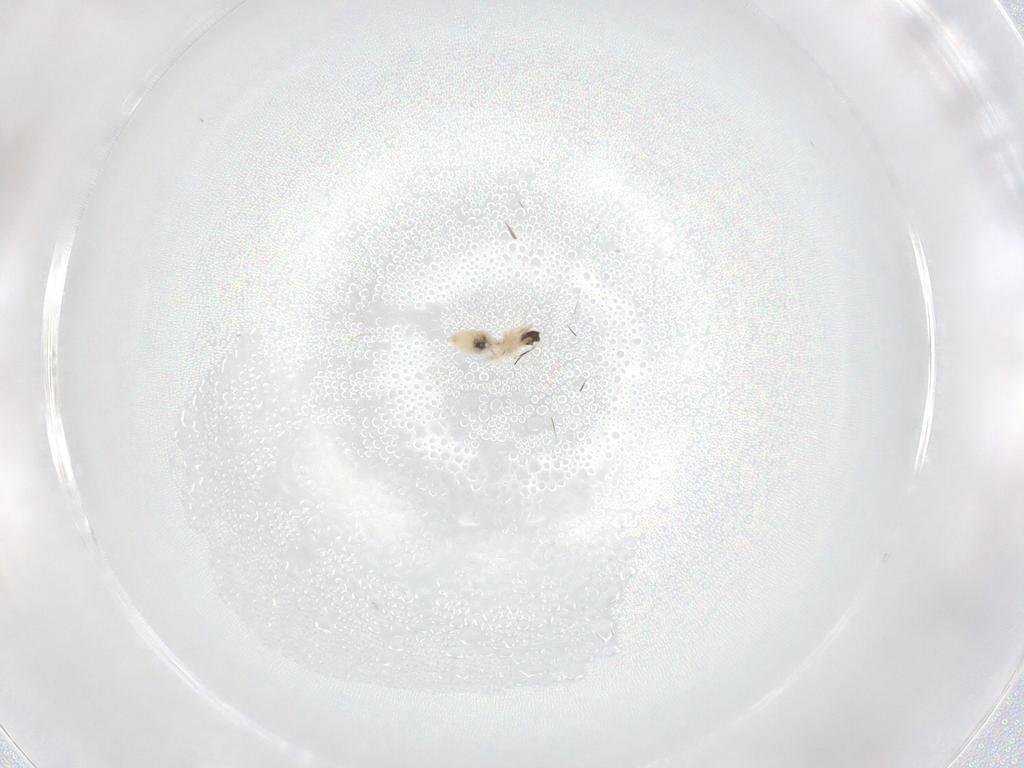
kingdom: Animalia
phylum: Arthropoda
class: Insecta
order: Diptera
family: Cecidomyiidae
